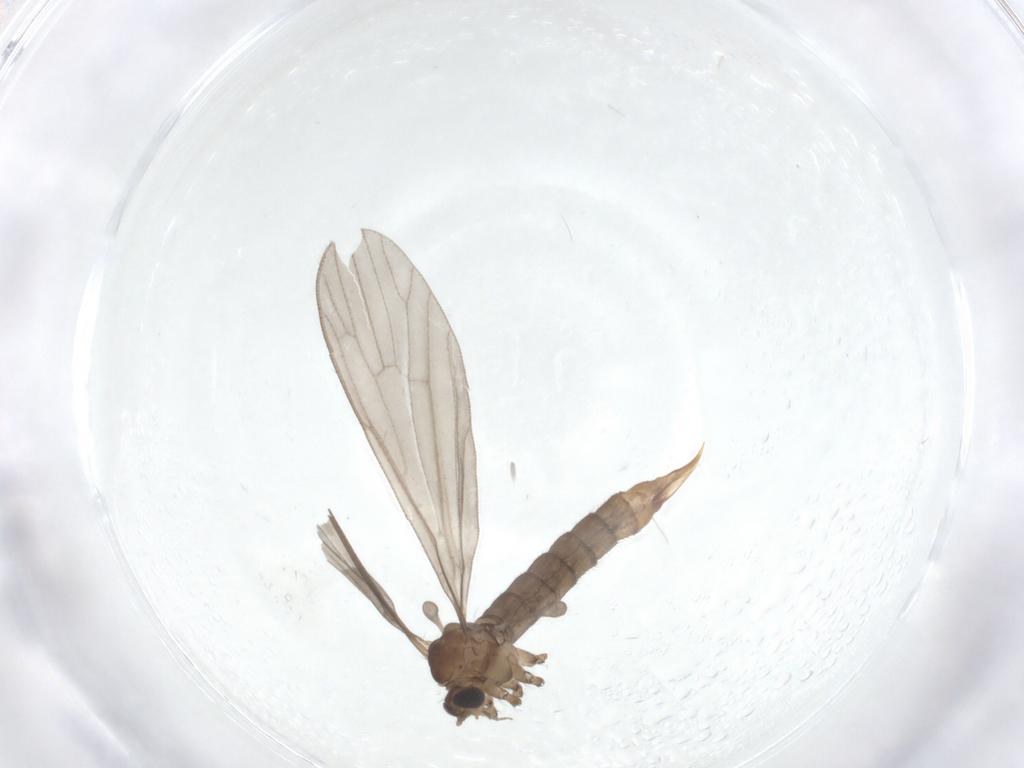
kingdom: Animalia
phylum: Arthropoda
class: Insecta
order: Diptera
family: Limoniidae
